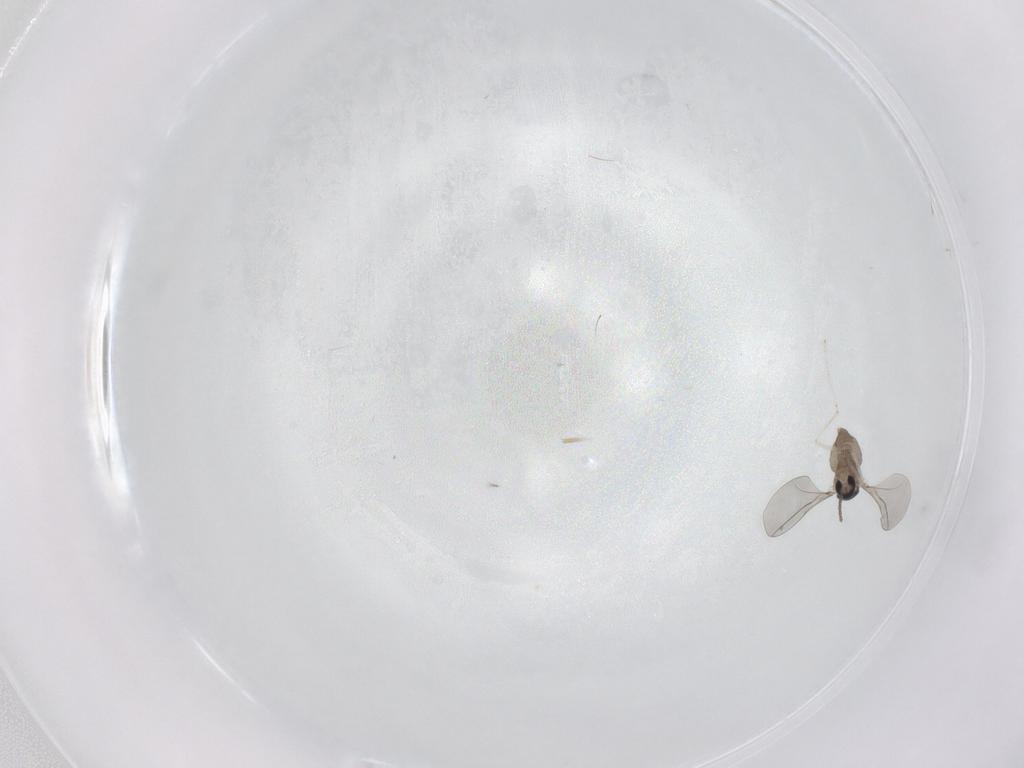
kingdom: Animalia
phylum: Arthropoda
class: Insecta
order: Diptera
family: Cecidomyiidae
